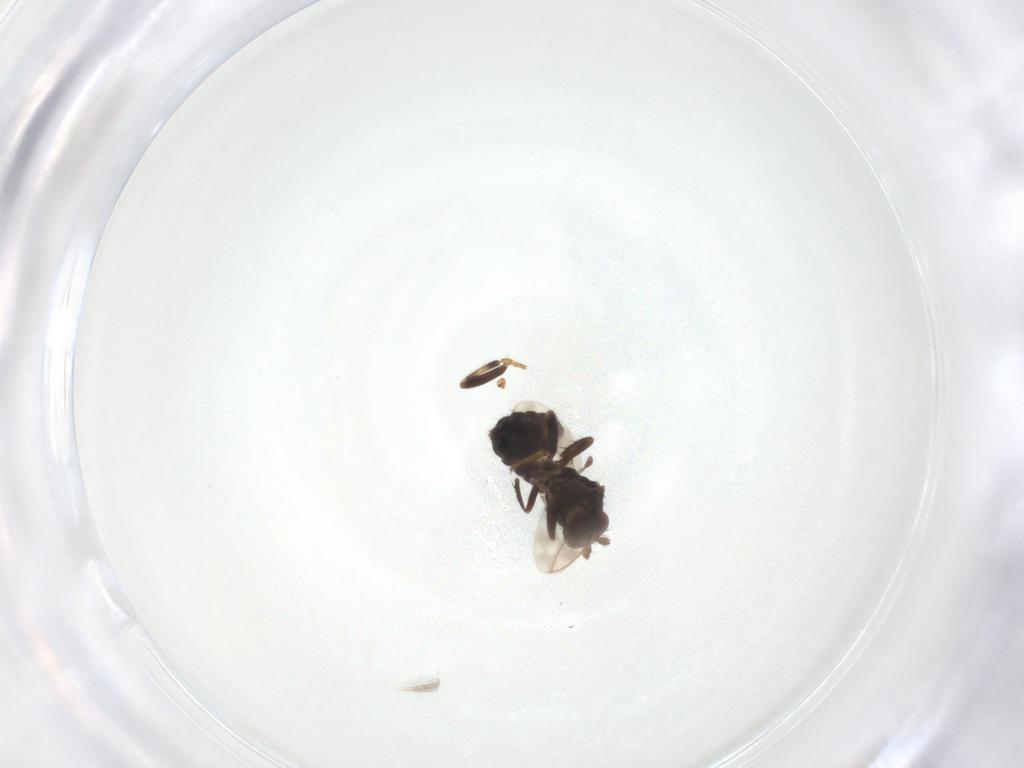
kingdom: Animalia
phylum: Arthropoda
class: Insecta
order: Diptera
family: Sphaeroceridae
